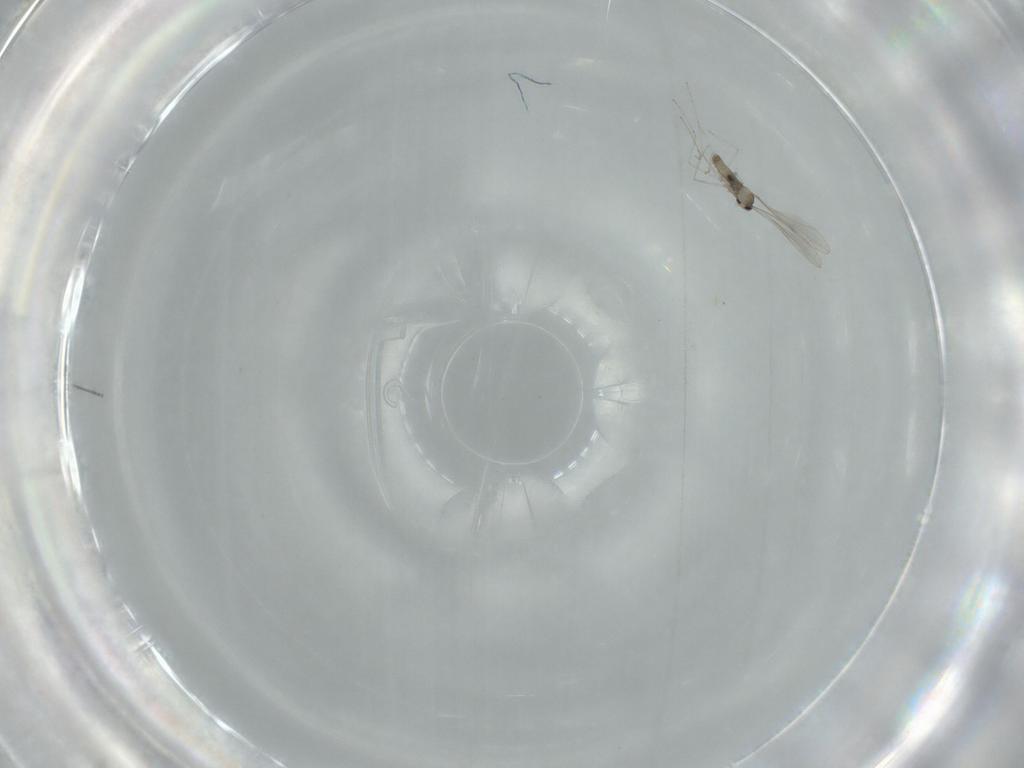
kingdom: Animalia
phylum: Arthropoda
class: Insecta
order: Diptera
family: Cecidomyiidae
